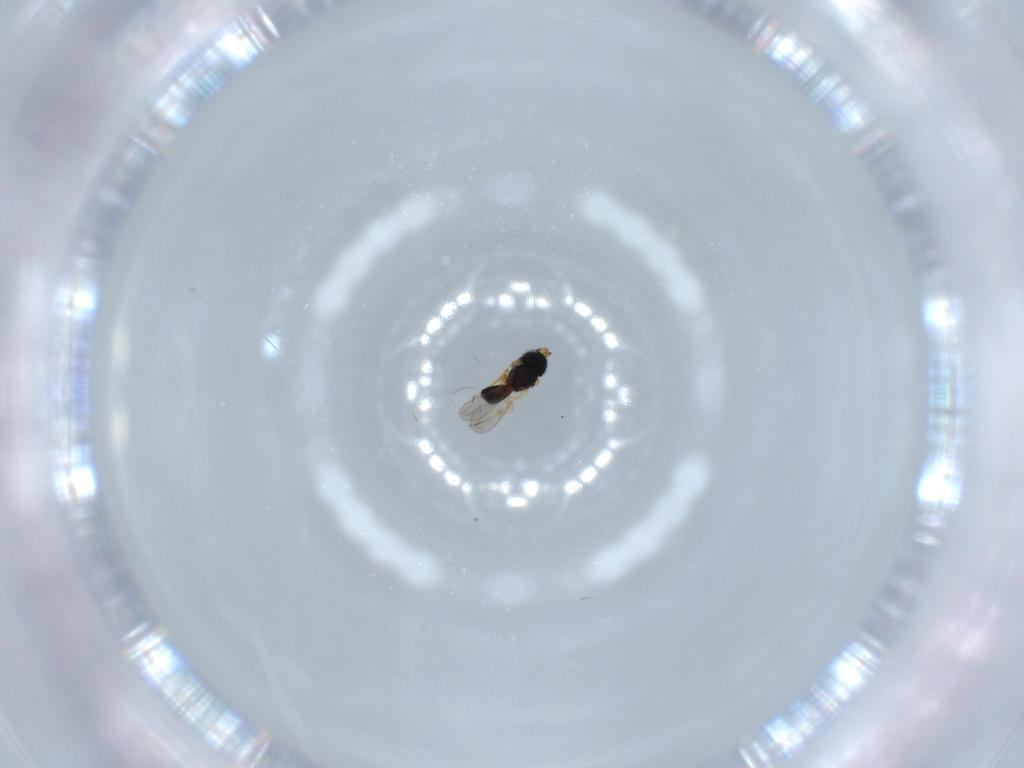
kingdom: Animalia
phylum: Arthropoda
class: Insecta
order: Hymenoptera
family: Scelionidae
